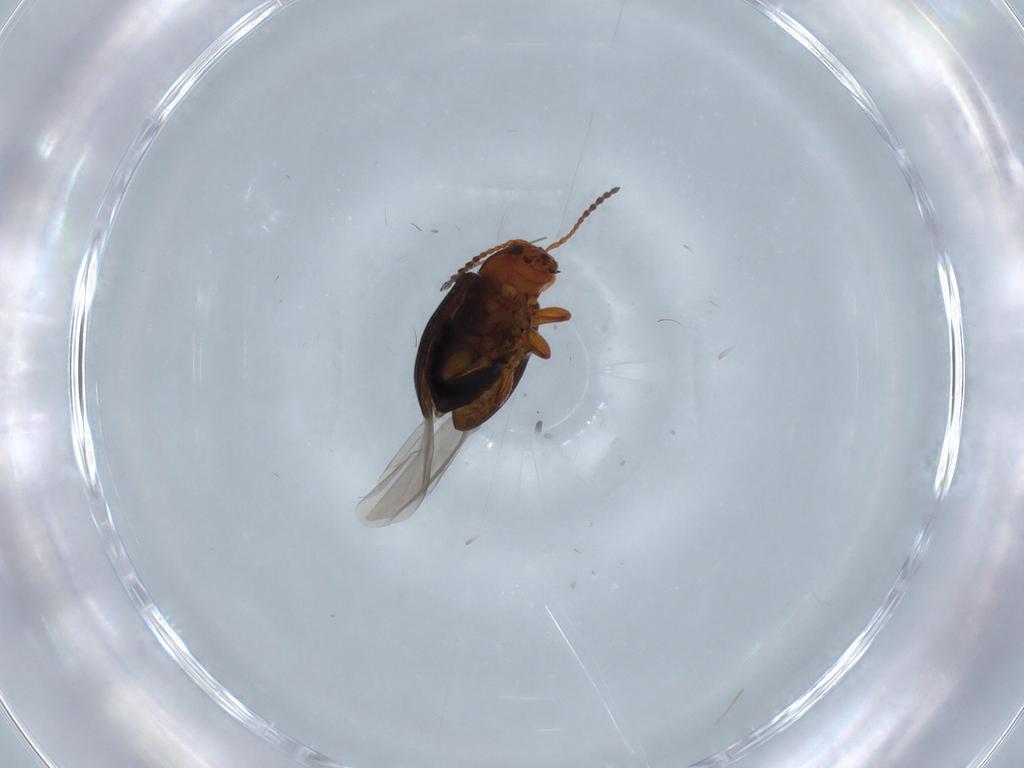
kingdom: Animalia
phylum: Arthropoda
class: Insecta
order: Coleoptera
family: Chrysomelidae
